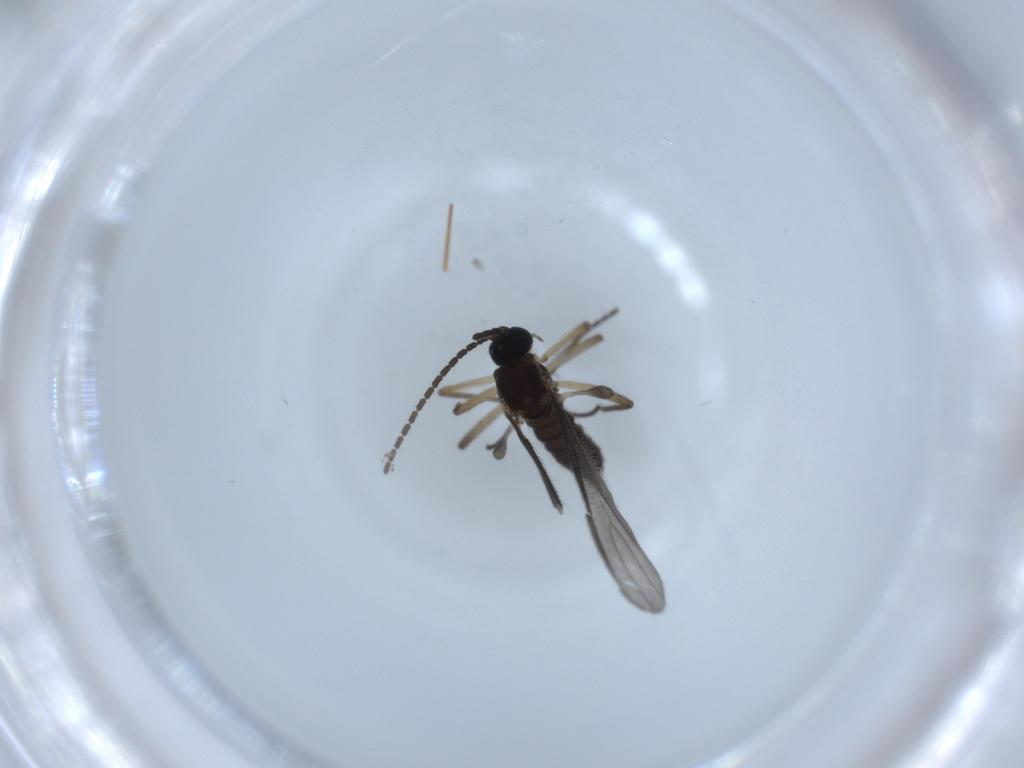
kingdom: Animalia
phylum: Arthropoda
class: Insecta
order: Diptera
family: Sciaridae
